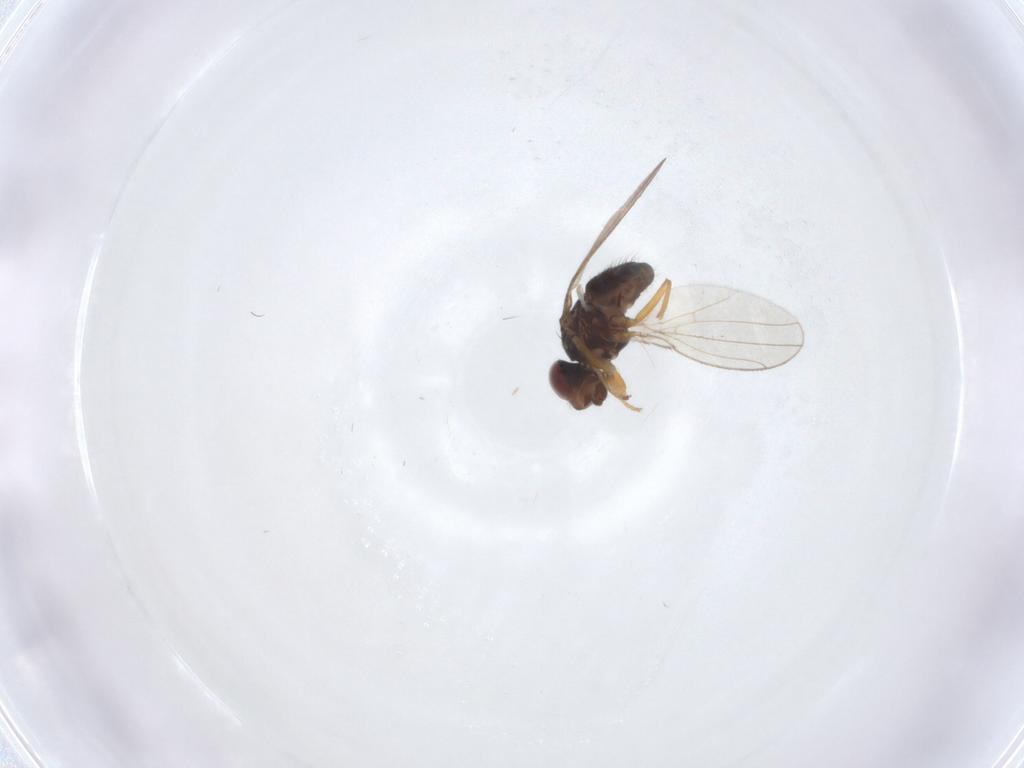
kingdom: Animalia
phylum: Arthropoda
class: Insecta
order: Diptera
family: Ephydridae
